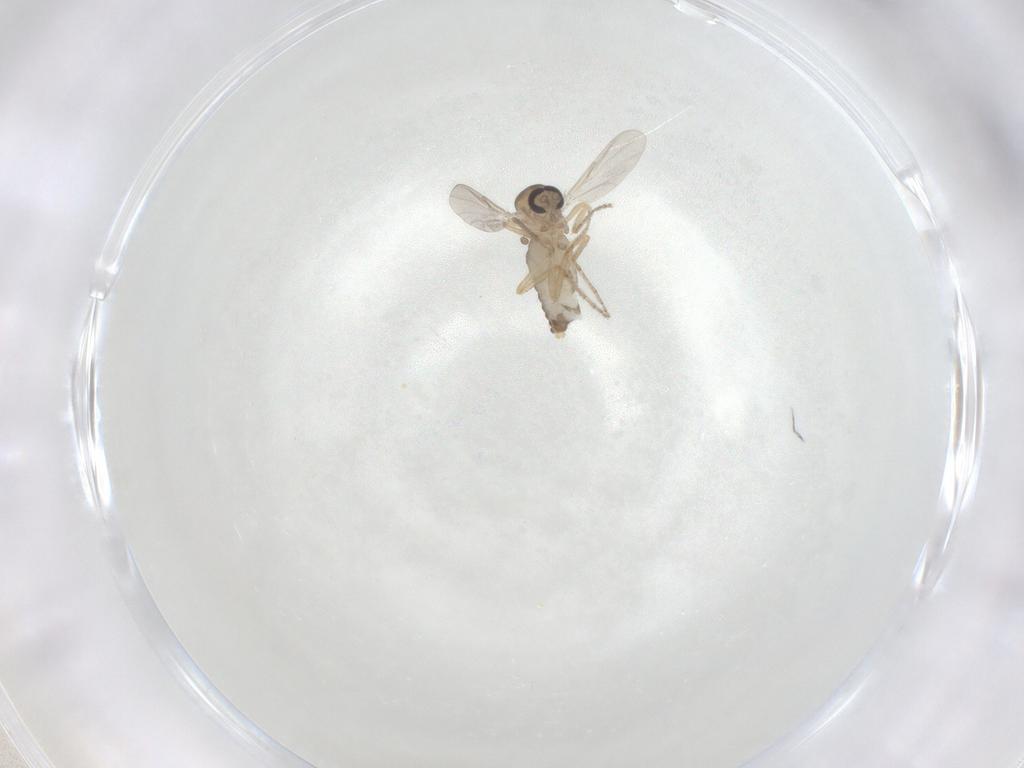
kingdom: Animalia
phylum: Arthropoda
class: Insecta
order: Diptera
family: Ceratopogonidae
